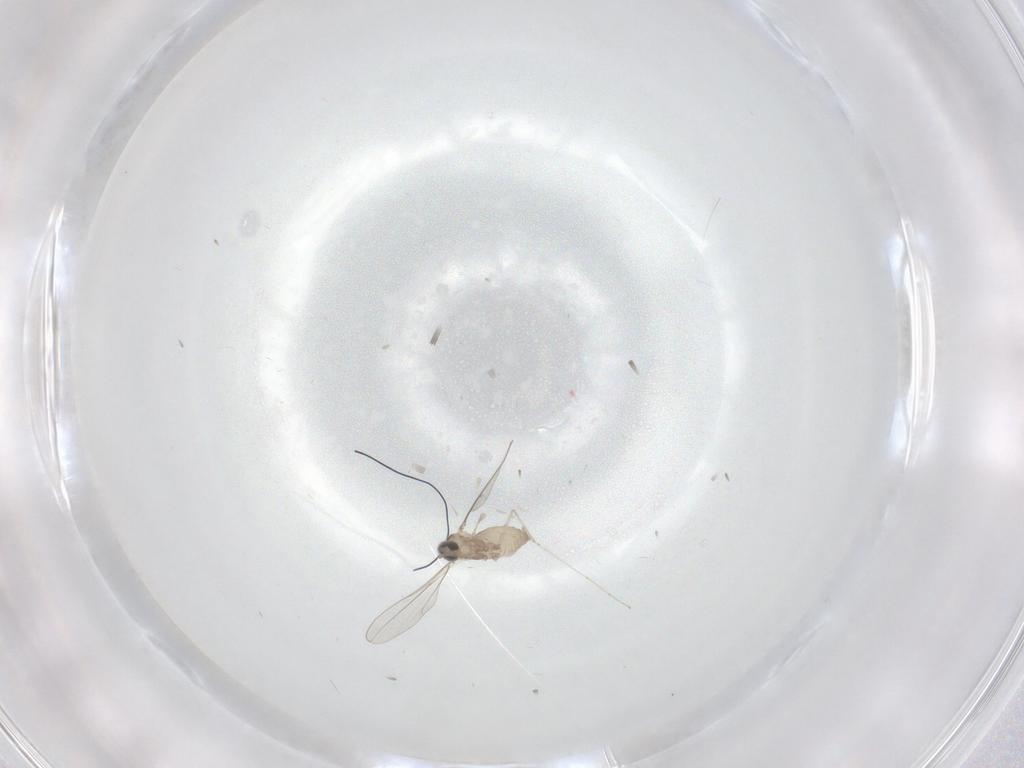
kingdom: Animalia
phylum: Arthropoda
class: Insecta
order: Diptera
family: Cecidomyiidae
